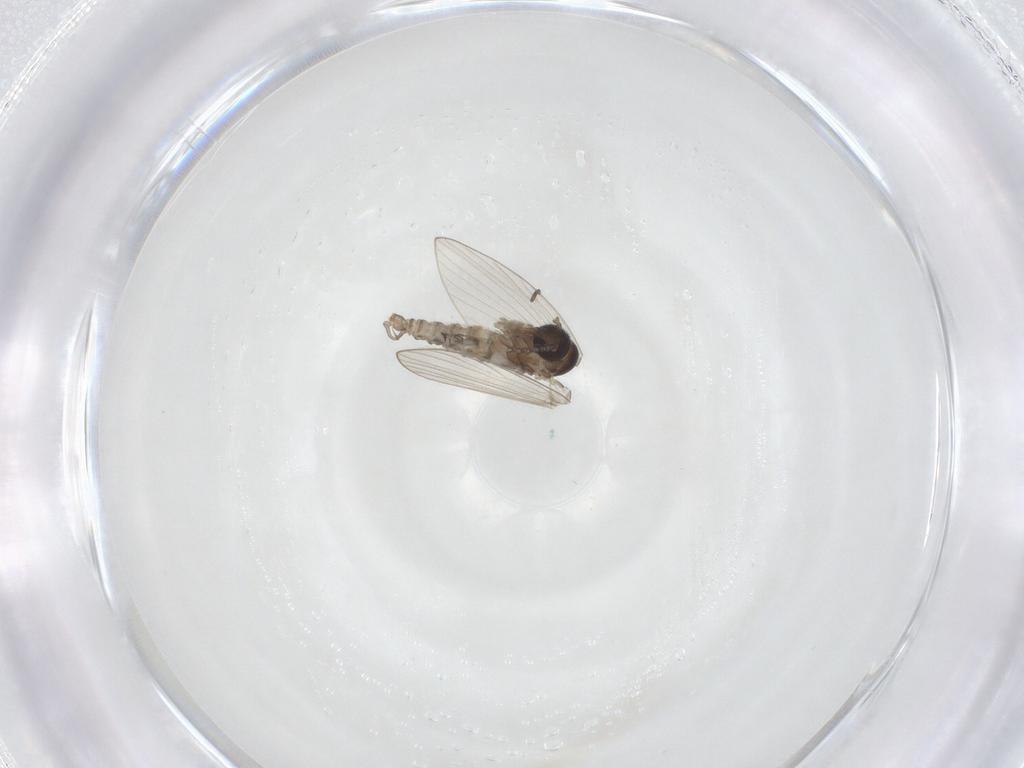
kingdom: Animalia
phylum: Arthropoda
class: Insecta
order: Diptera
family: Psychodidae
